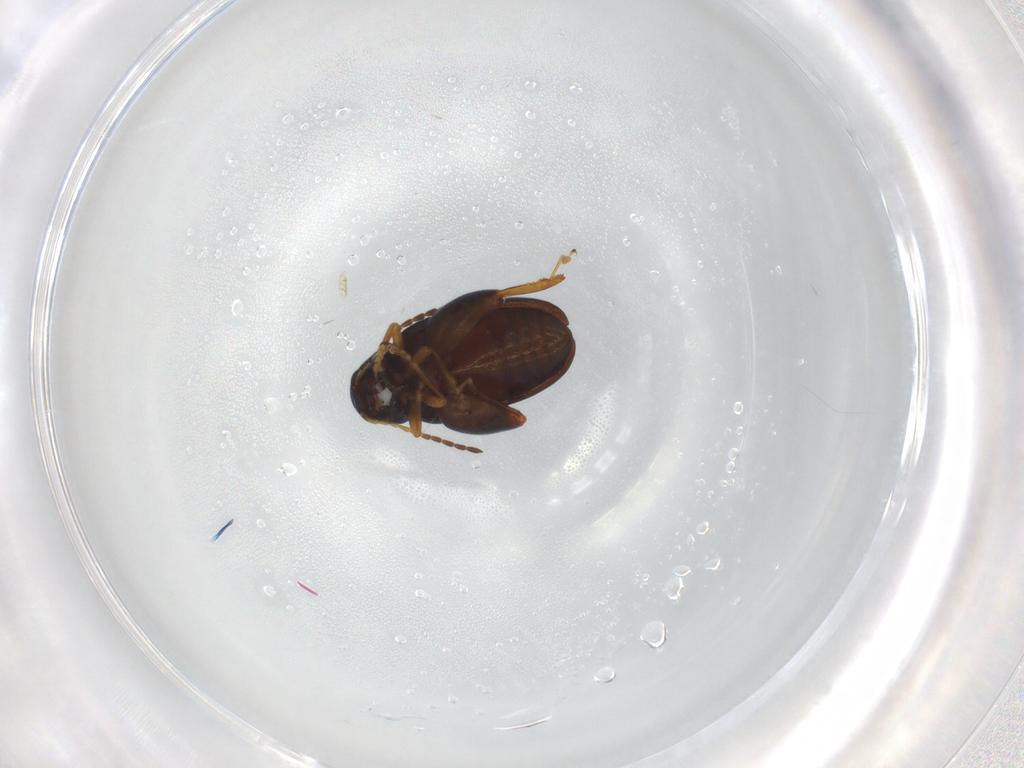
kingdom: Animalia
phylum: Arthropoda
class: Insecta
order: Coleoptera
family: Chrysomelidae
